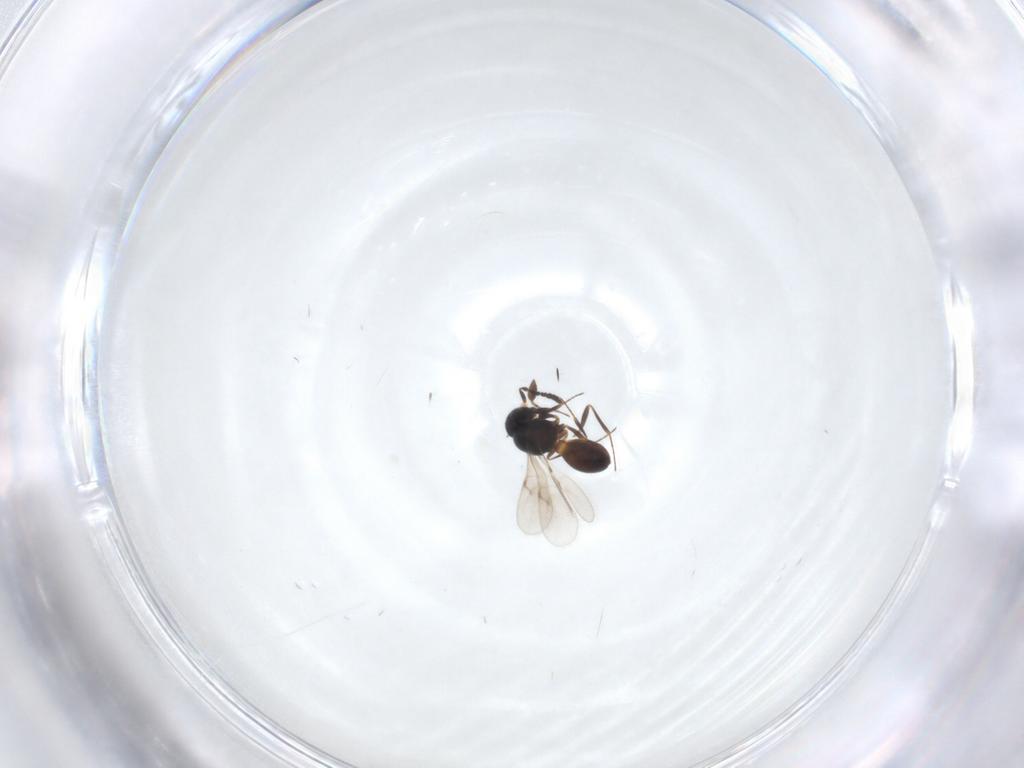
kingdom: Animalia
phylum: Arthropoda
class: Insecta
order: Hymenoptera
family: Scelionidae
